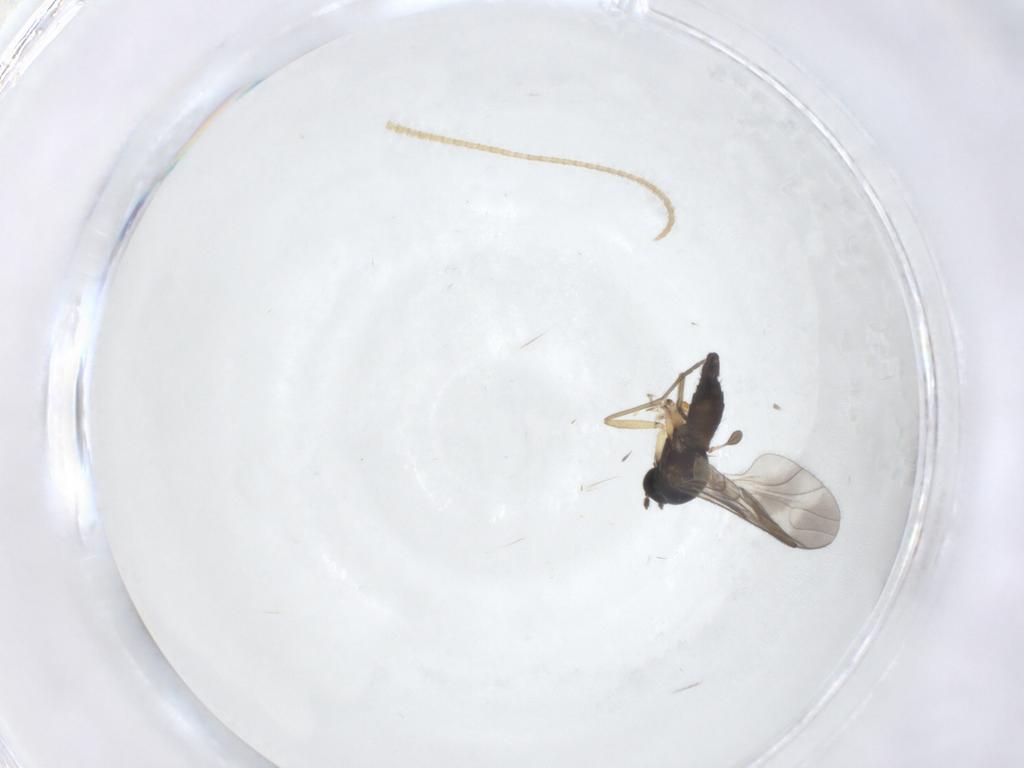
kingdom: Animalia
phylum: Arthropoda
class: Insecta
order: Diptera
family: Sciaridae
